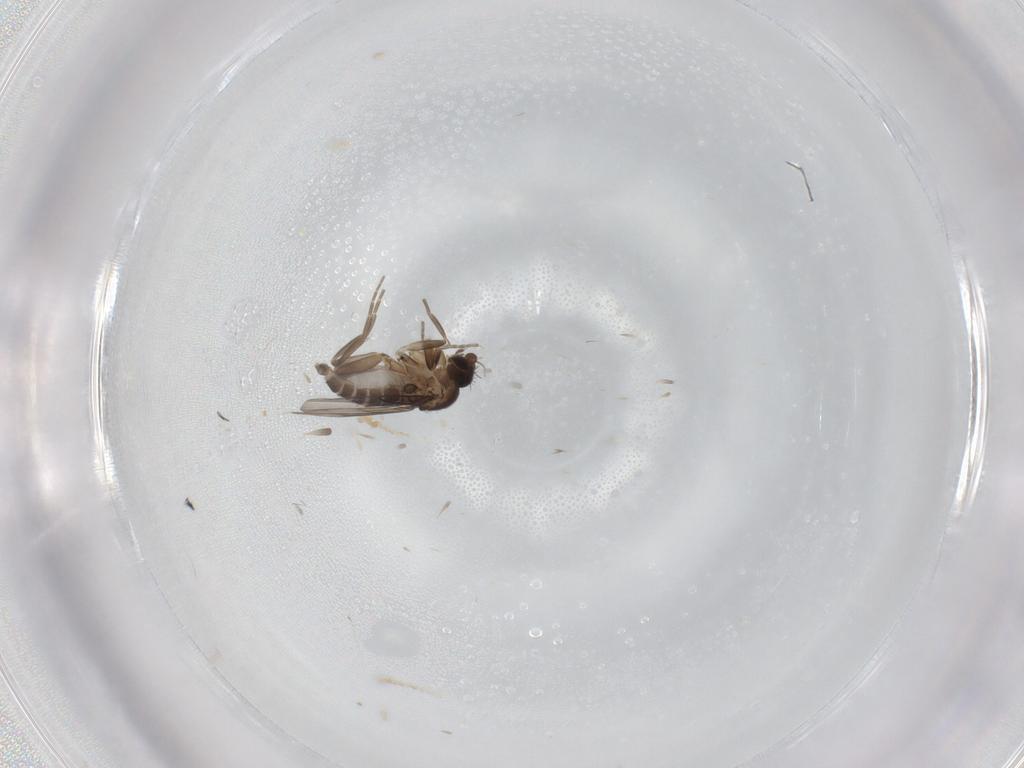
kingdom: Animalia
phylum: Arthropoda
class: Insecta
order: Diptera
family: Phoridae
